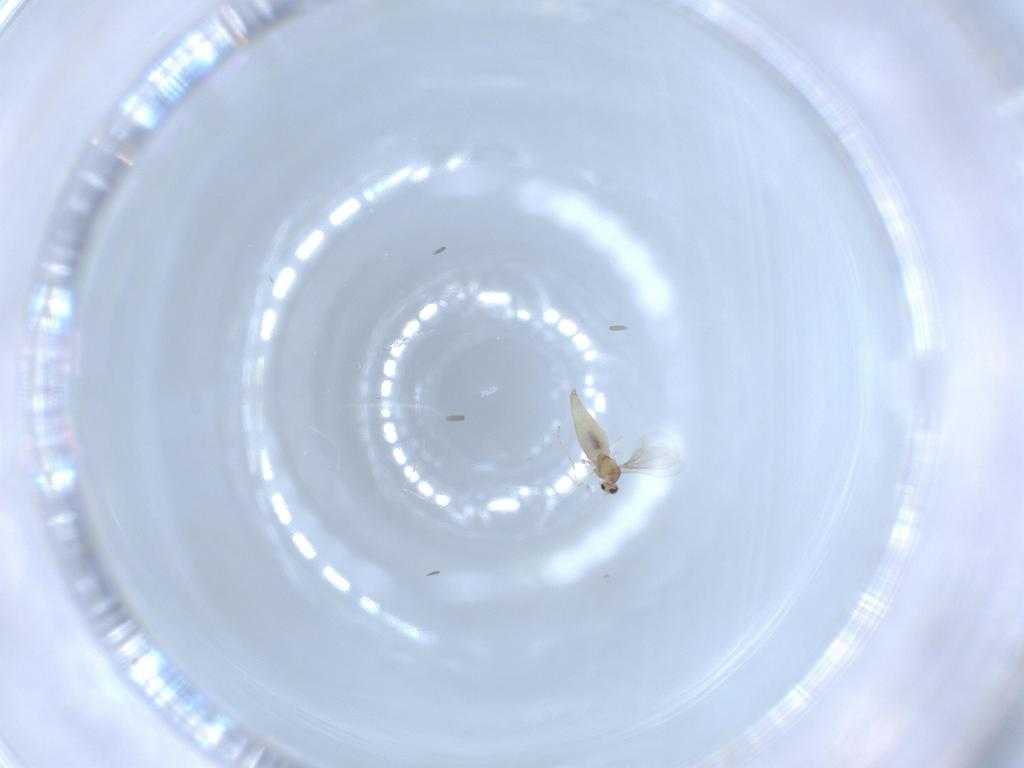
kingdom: Animalia
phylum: Arthropoda
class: Insecta
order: Diptera
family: Cecidomyiidae
